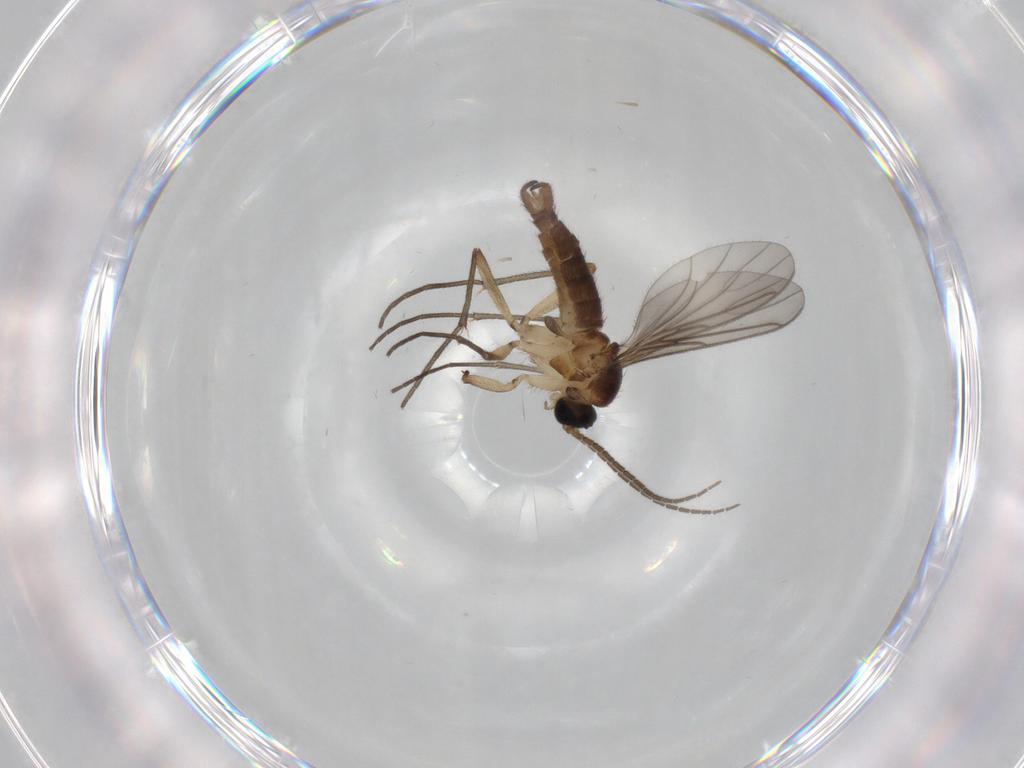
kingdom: Animalia
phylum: Arthropoda
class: Insecta
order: Diptera
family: Sciaridae
